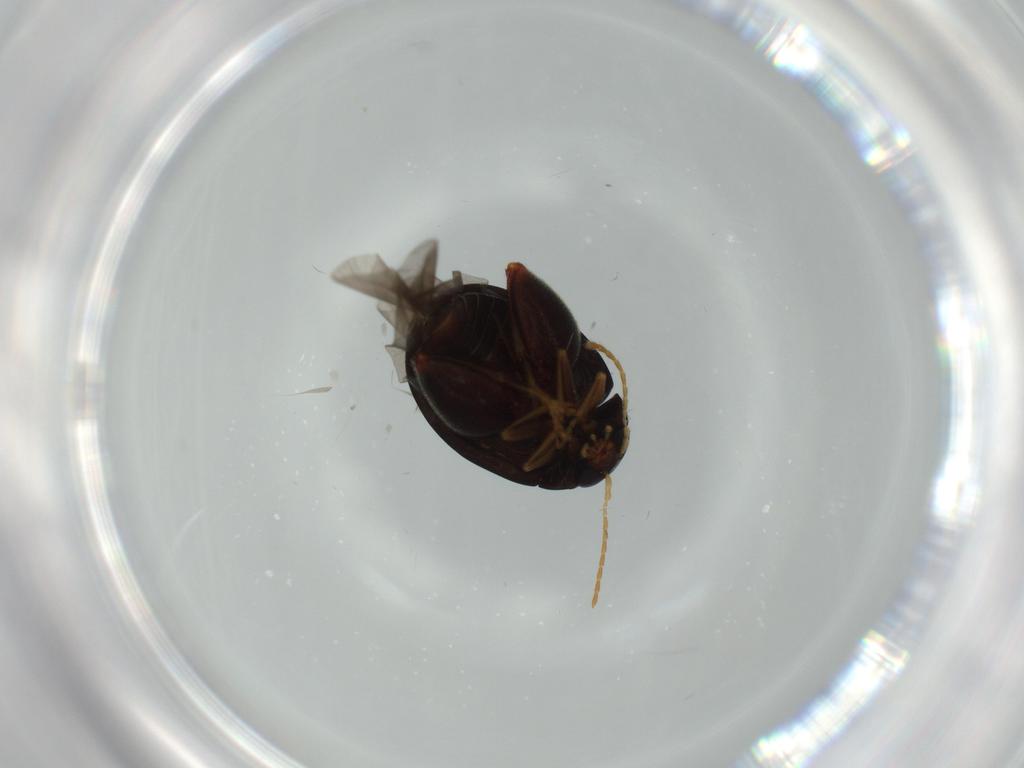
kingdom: Animalia
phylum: Arthropoda
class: Insecta
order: Coleoptera
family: Chrysomelidae
